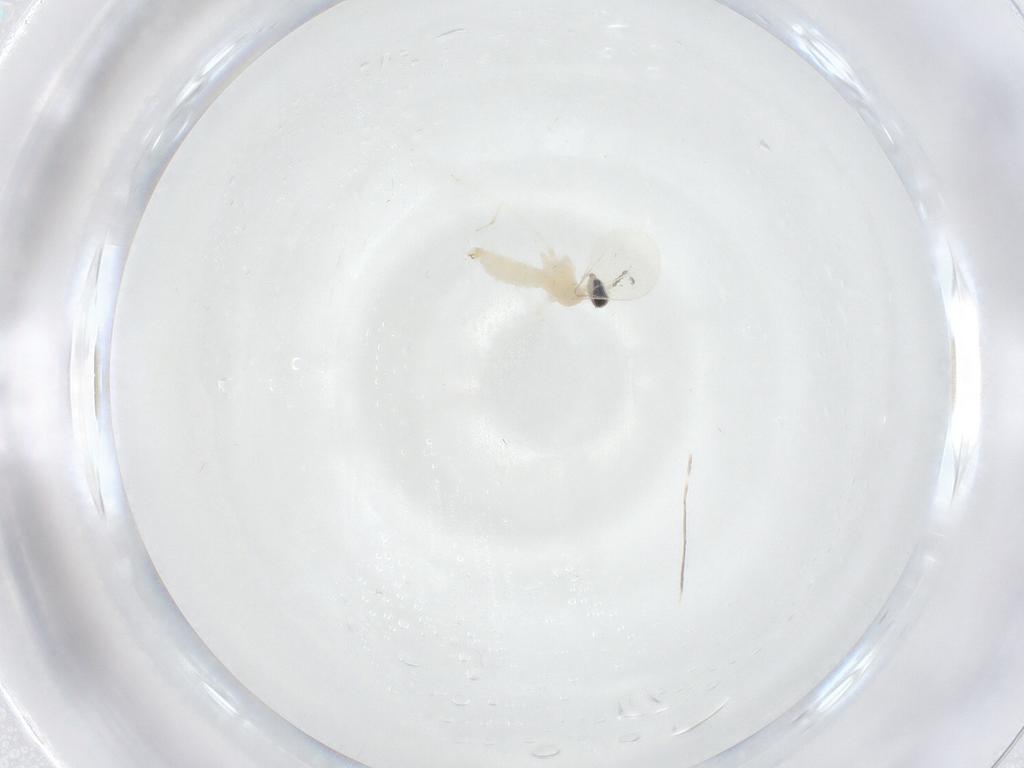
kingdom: Animalia
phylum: Arthropoda
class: Insecta
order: Diptera
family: Cecidomyiidae
